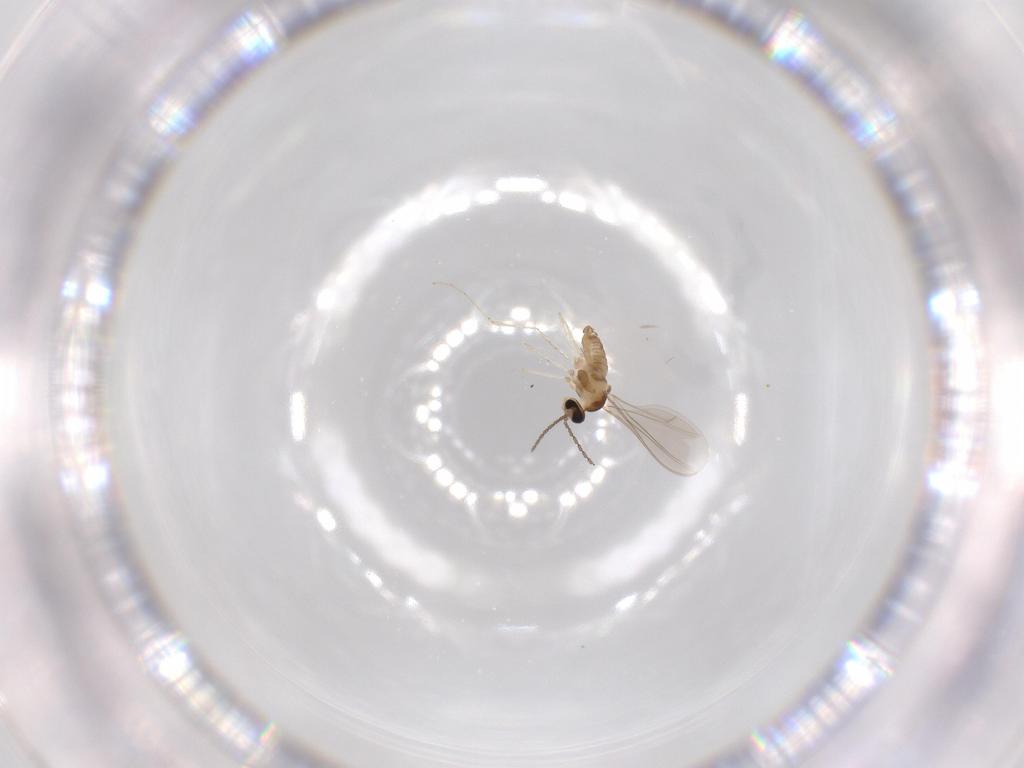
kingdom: Animalia
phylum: Arthropoda
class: Insecta
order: Diptera
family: Cecidomyiidae
